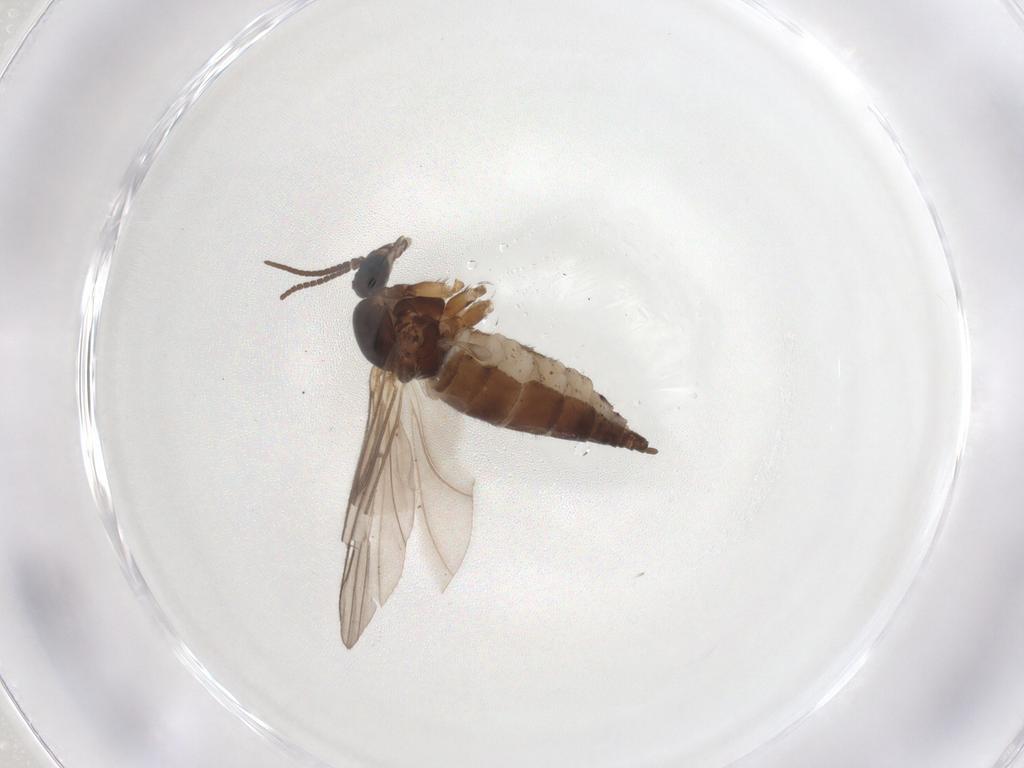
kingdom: Animalia
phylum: Arthropoda
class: Insecta
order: Diptera
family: Sciaridae
